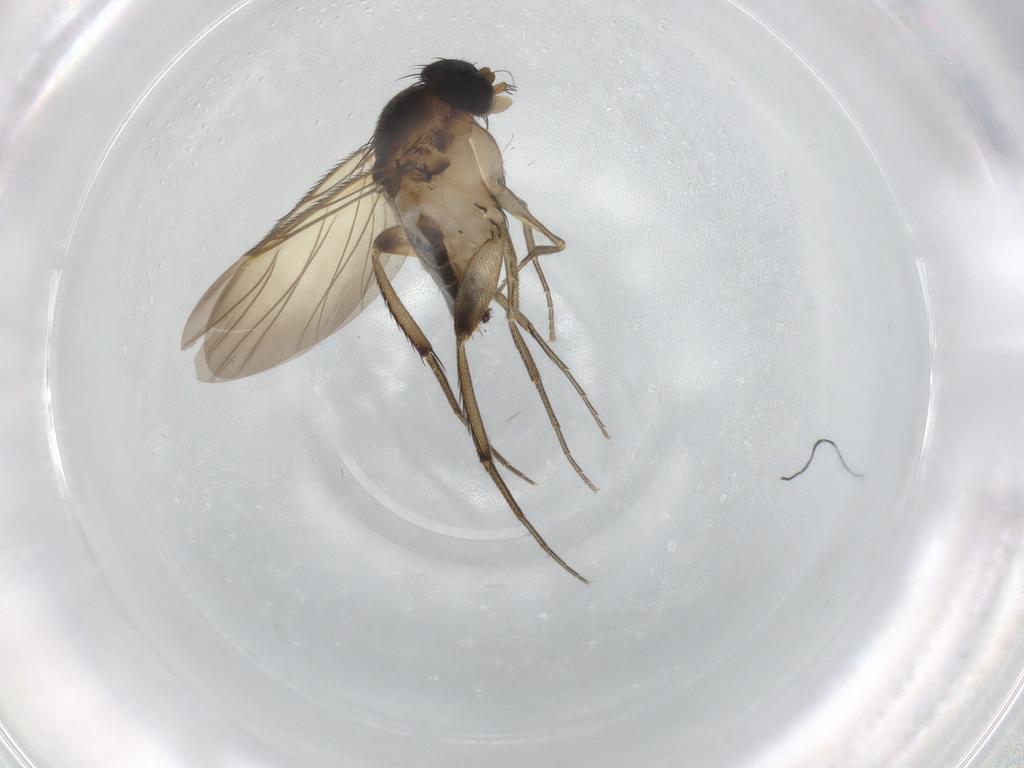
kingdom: Animalia
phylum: Arthropoda
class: Insecta
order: Diptera
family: Phoridae
